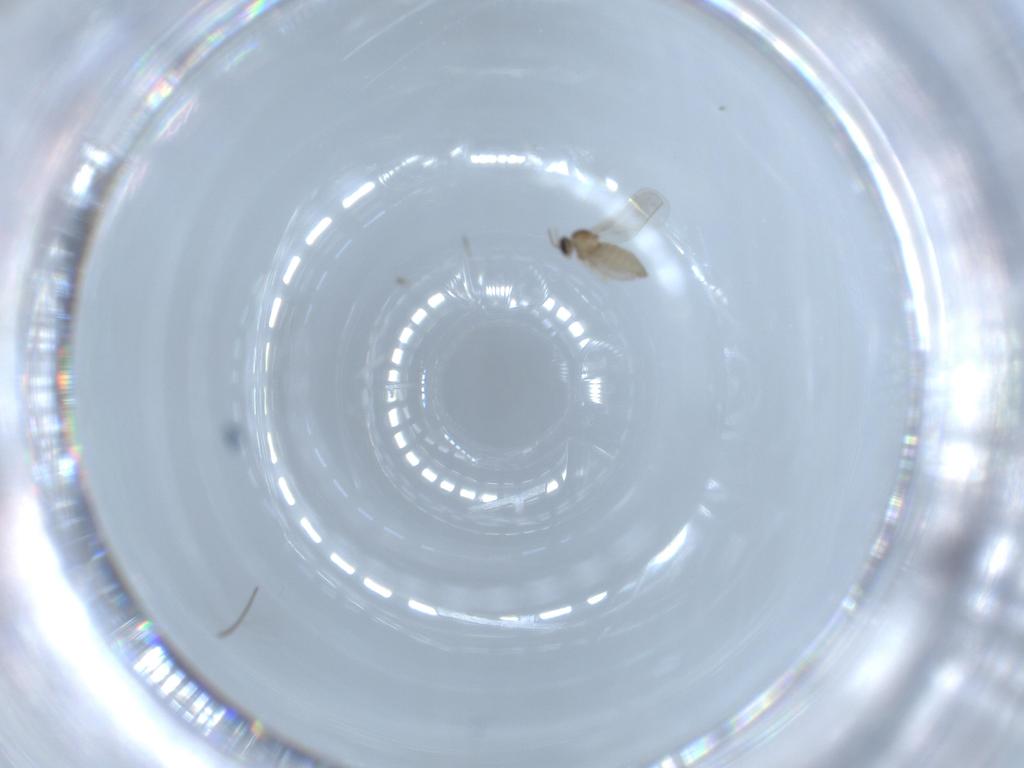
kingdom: Animalia
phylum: Arthropoda
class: Insecta
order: Diptera
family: Cecidomyiidae
